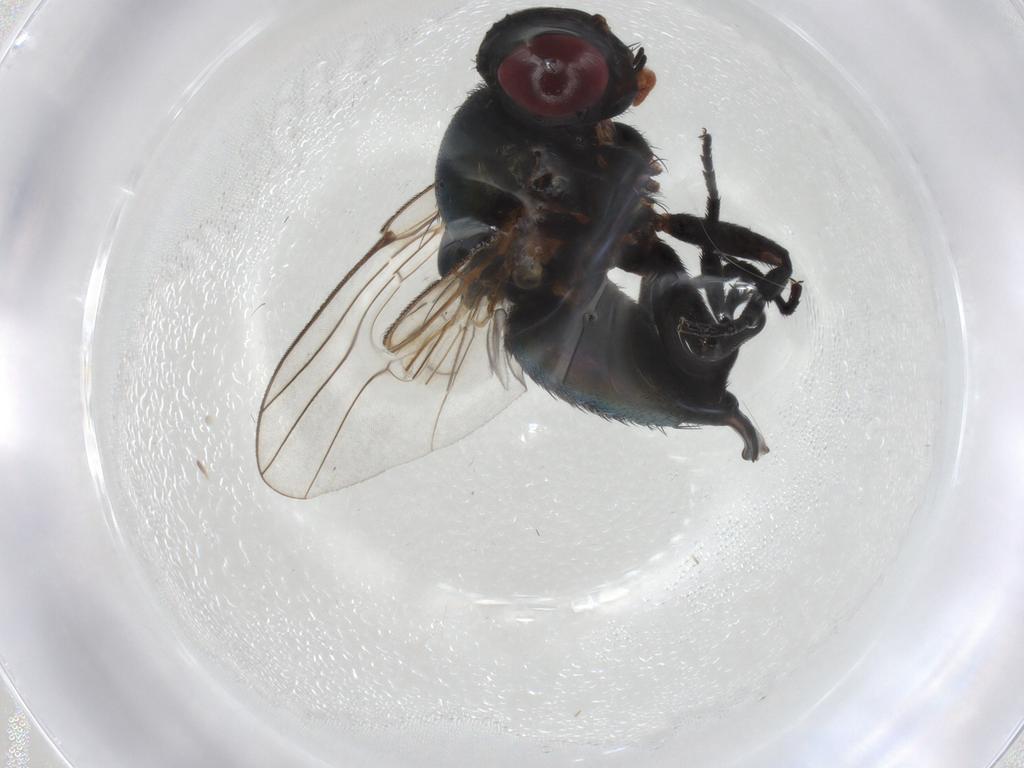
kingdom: Animalia
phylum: Arthropoda
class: Insecta
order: Diptera
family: Agromyzidae
